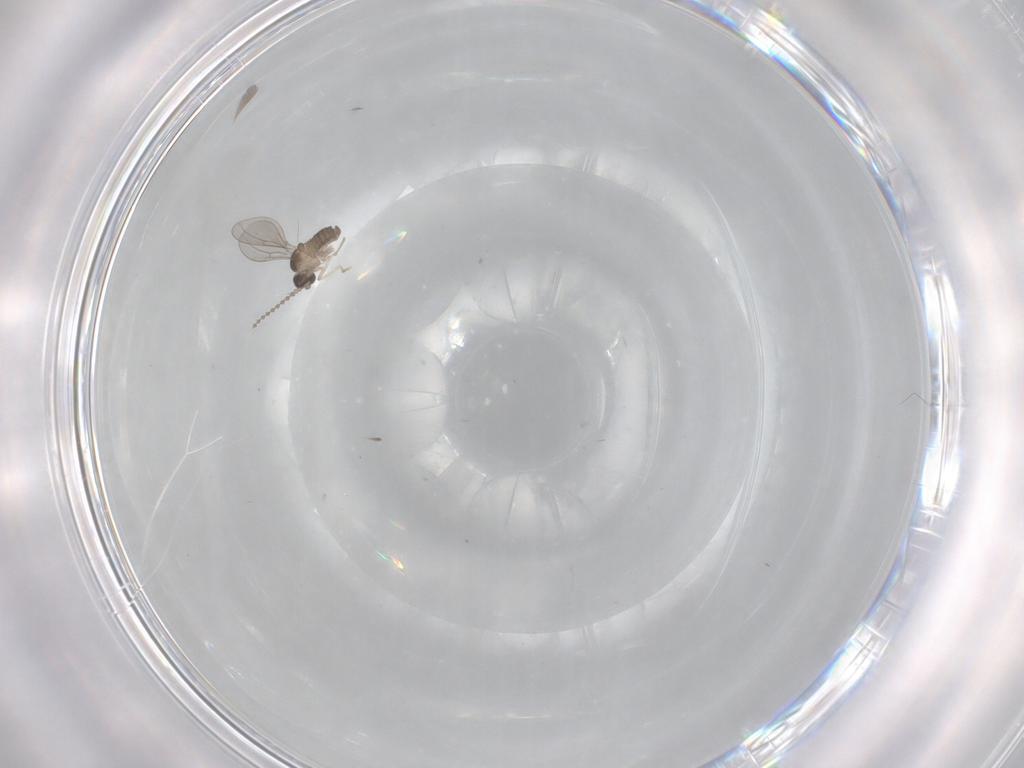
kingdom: Animalia
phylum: Arthropoda
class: Insecta
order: Diptera
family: Cecidomyiidae
